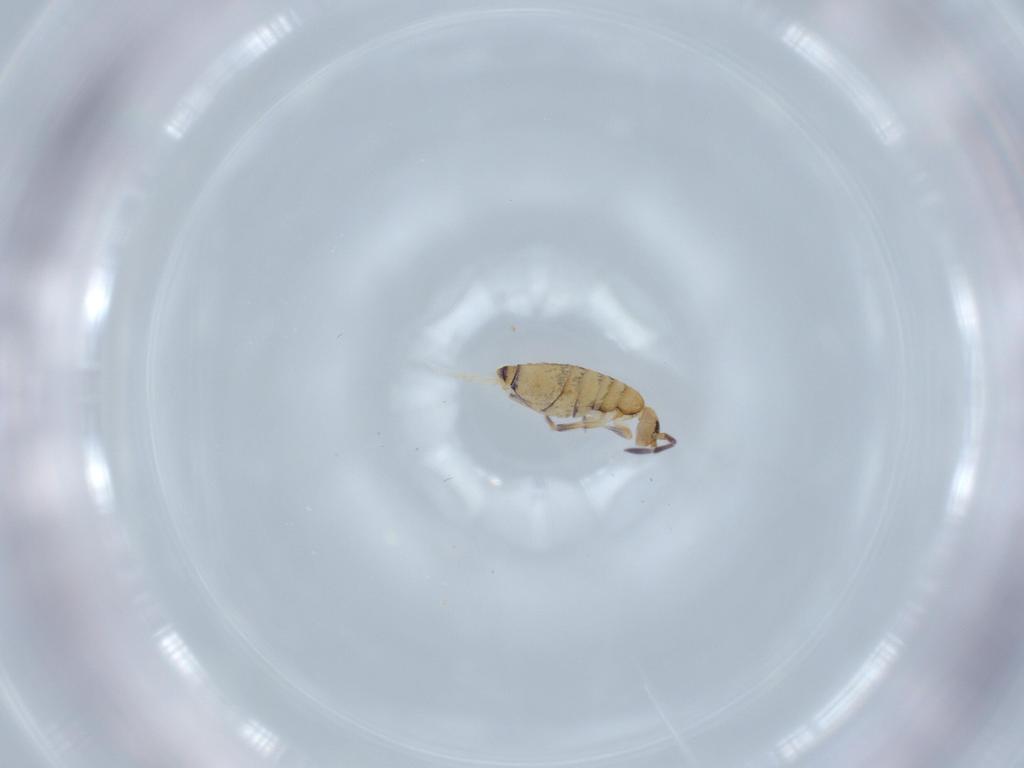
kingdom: Animalia
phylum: Arthropoda
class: Collembola
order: Entomobryomorpha
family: Entomobryidae
